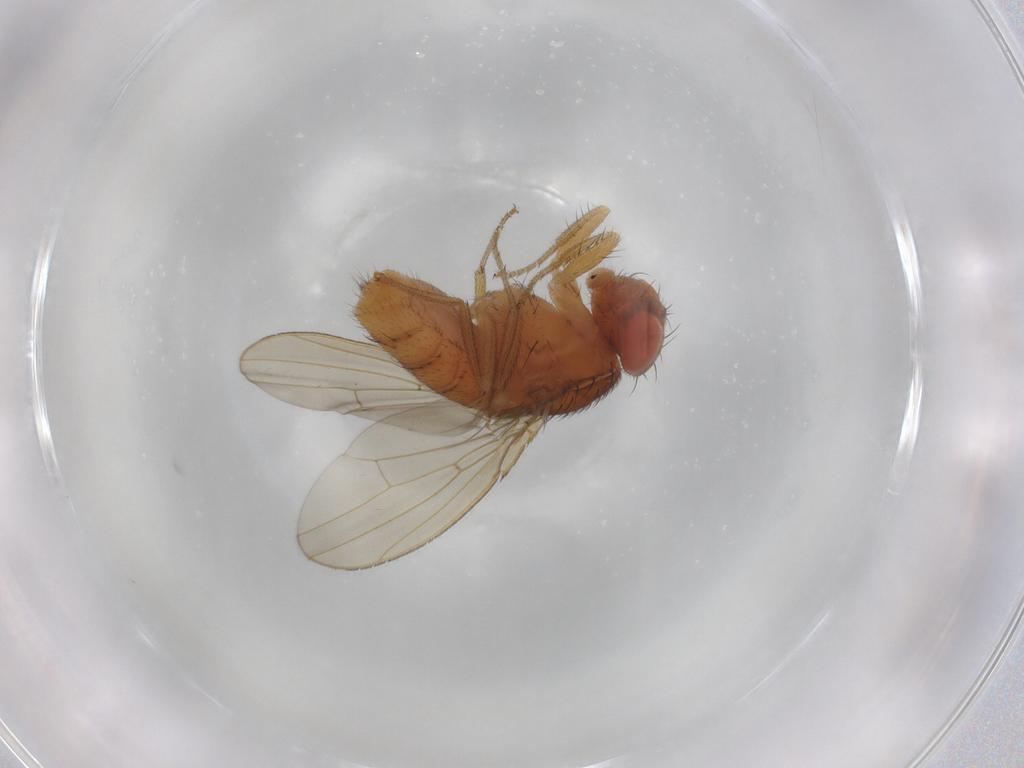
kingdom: Animalia
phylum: Arthropoda
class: Insecta
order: Diptera
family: Drosophilidae
